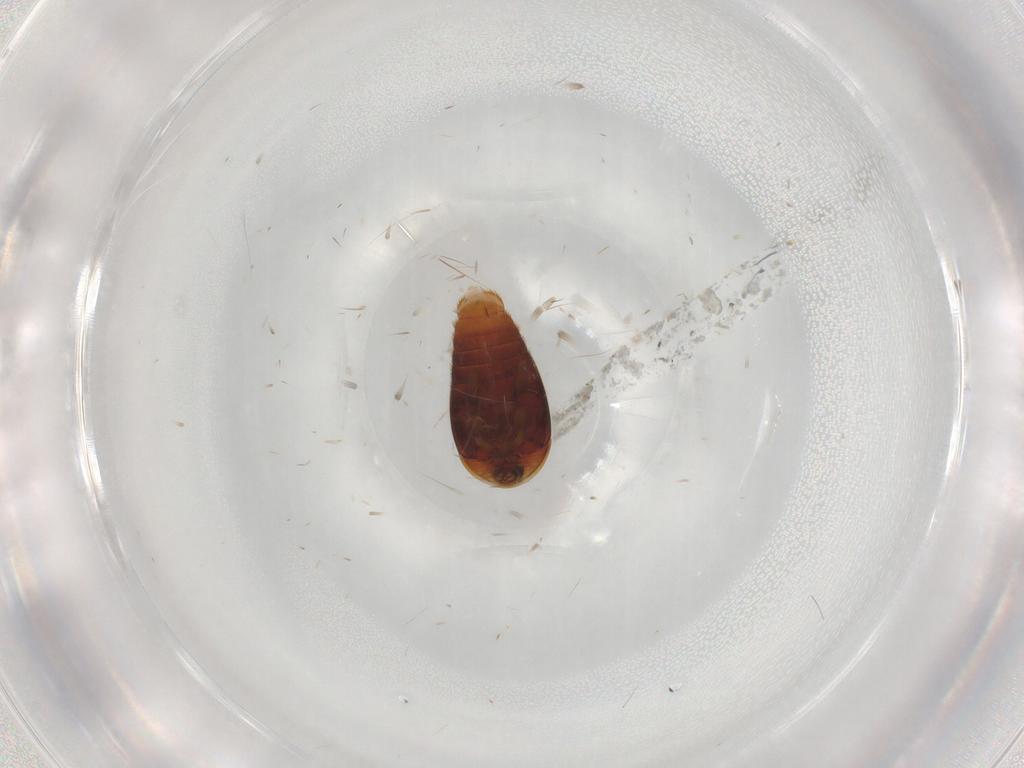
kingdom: Animalia
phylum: Arthropoda
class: Insecta
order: Coleoptera
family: Corylophidae
